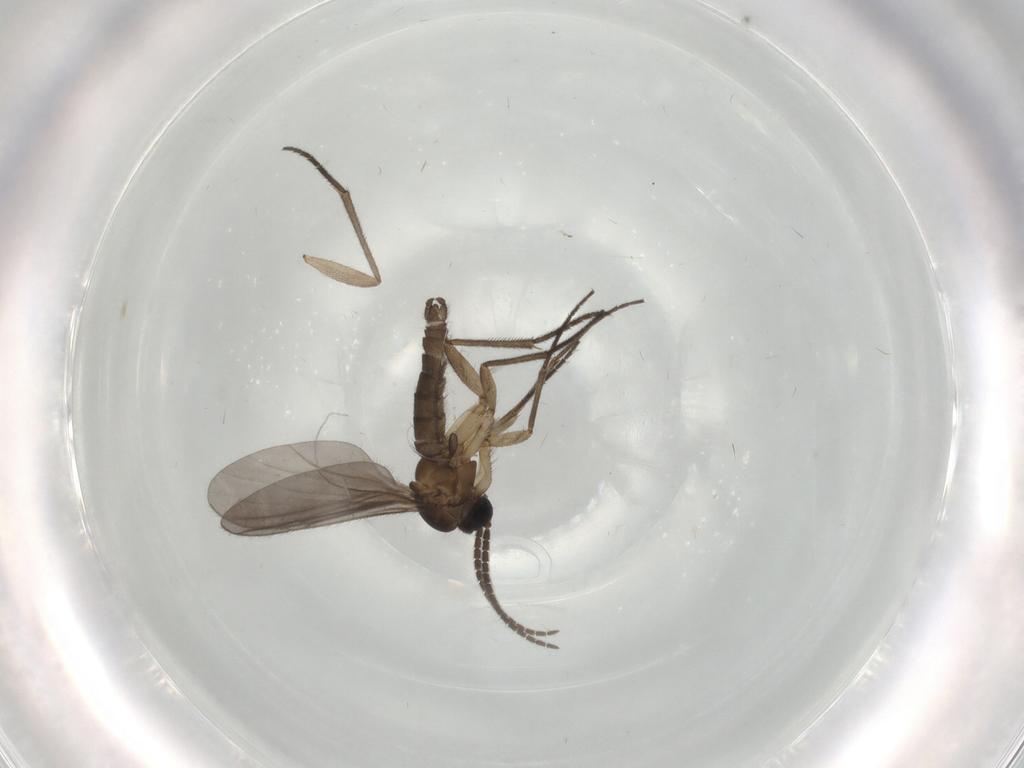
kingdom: Animalia
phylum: Arthropoda
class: Insecta
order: Diptera
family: Sciaridae
